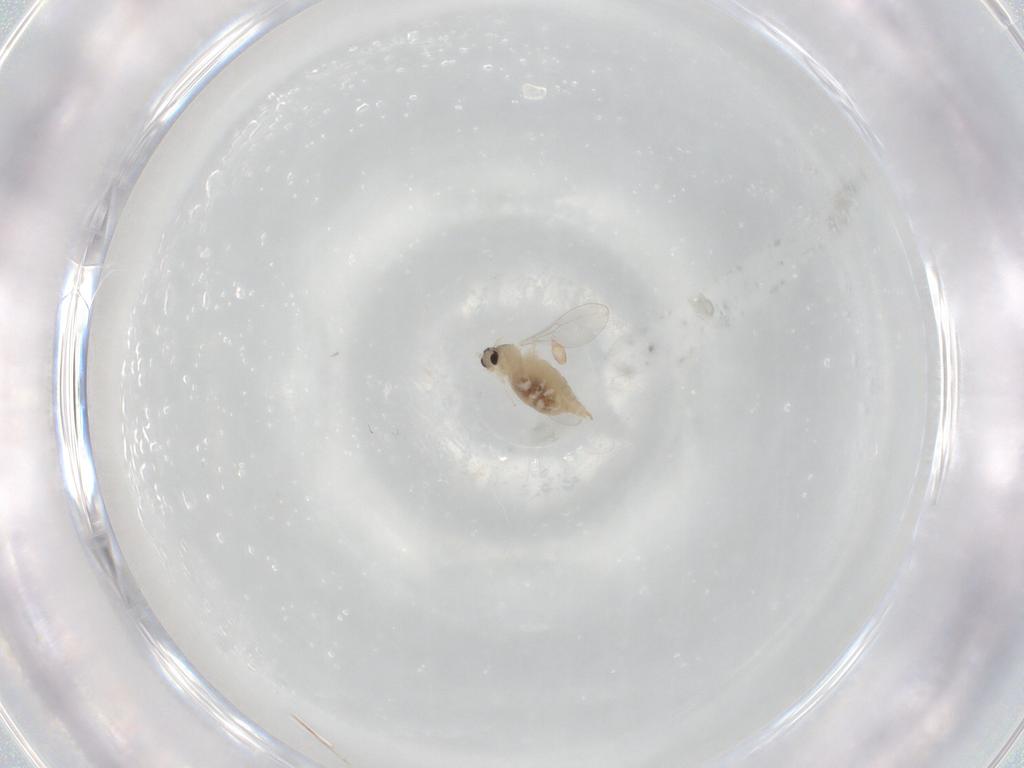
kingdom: Animalia
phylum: Arthropoda
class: Insecta
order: Diptera
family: Cecidomyiidae
